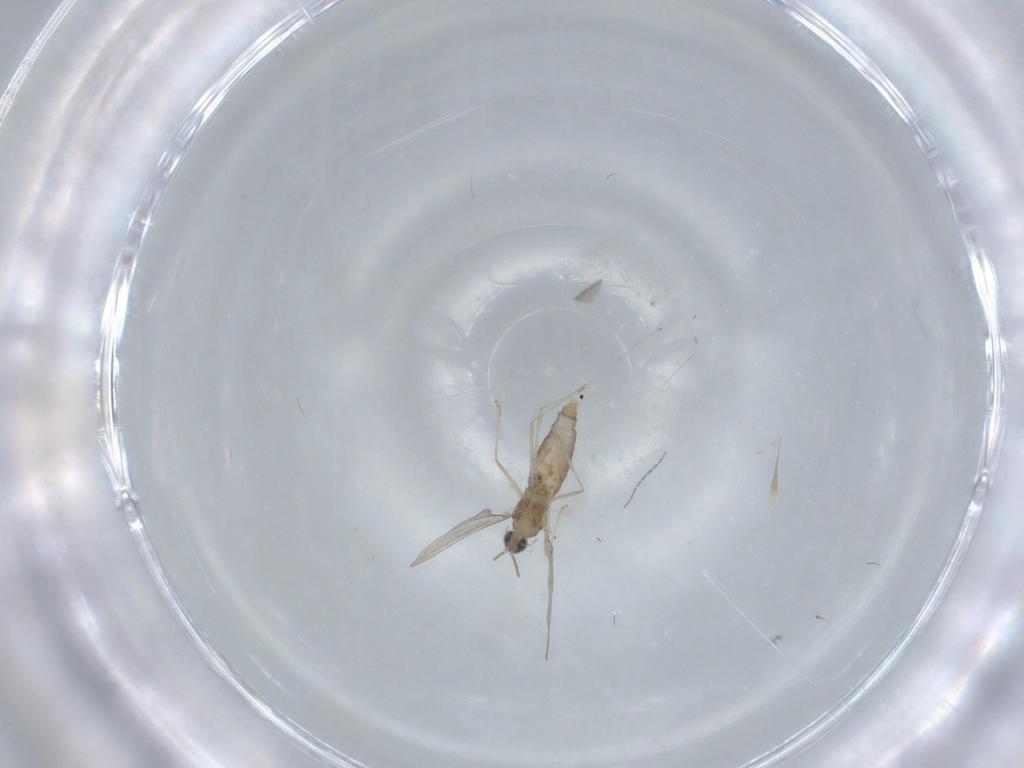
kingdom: Animalia
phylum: Arthropoda
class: Insecta
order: Diptera
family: Cecidomyiidae
